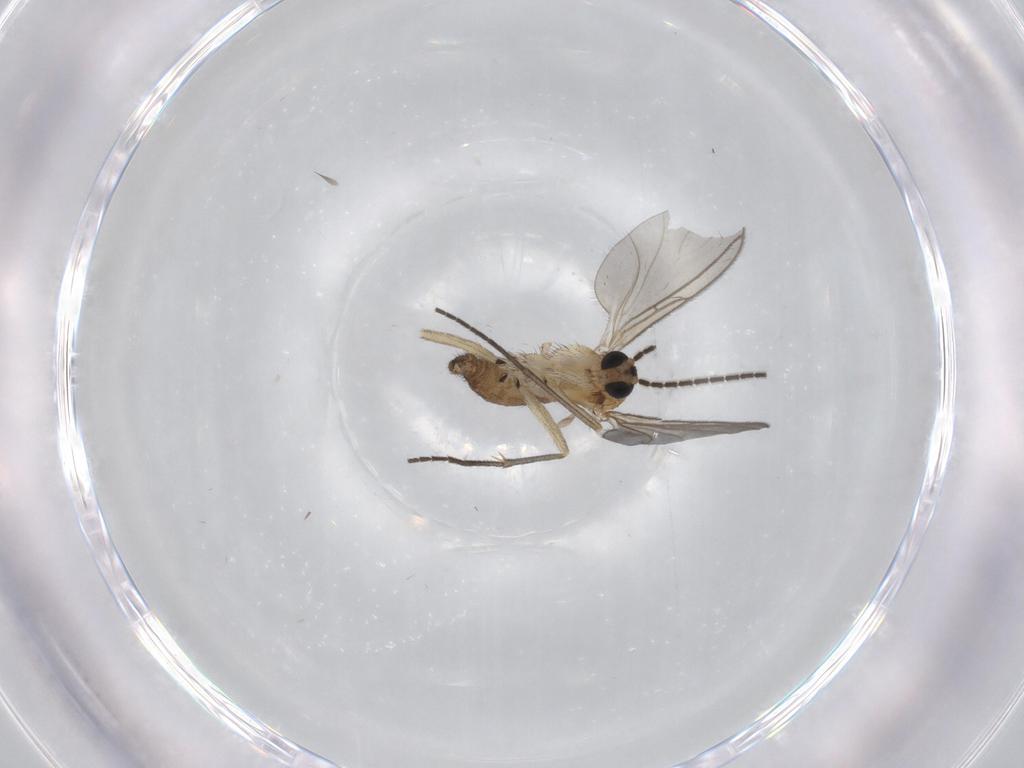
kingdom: Animalia
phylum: Arthropoda
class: Insecta
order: Diptera
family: Sciaridae
